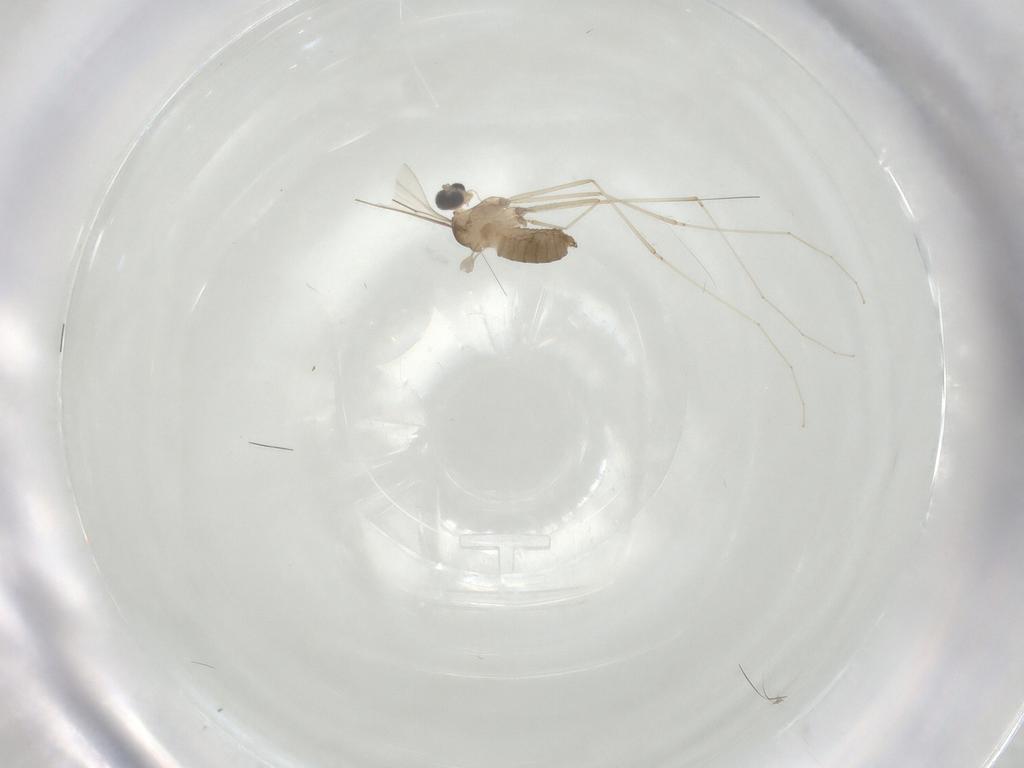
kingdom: Animalia
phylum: Arthropoda
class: Insecta
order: Diptera
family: Cecidomyiidae
